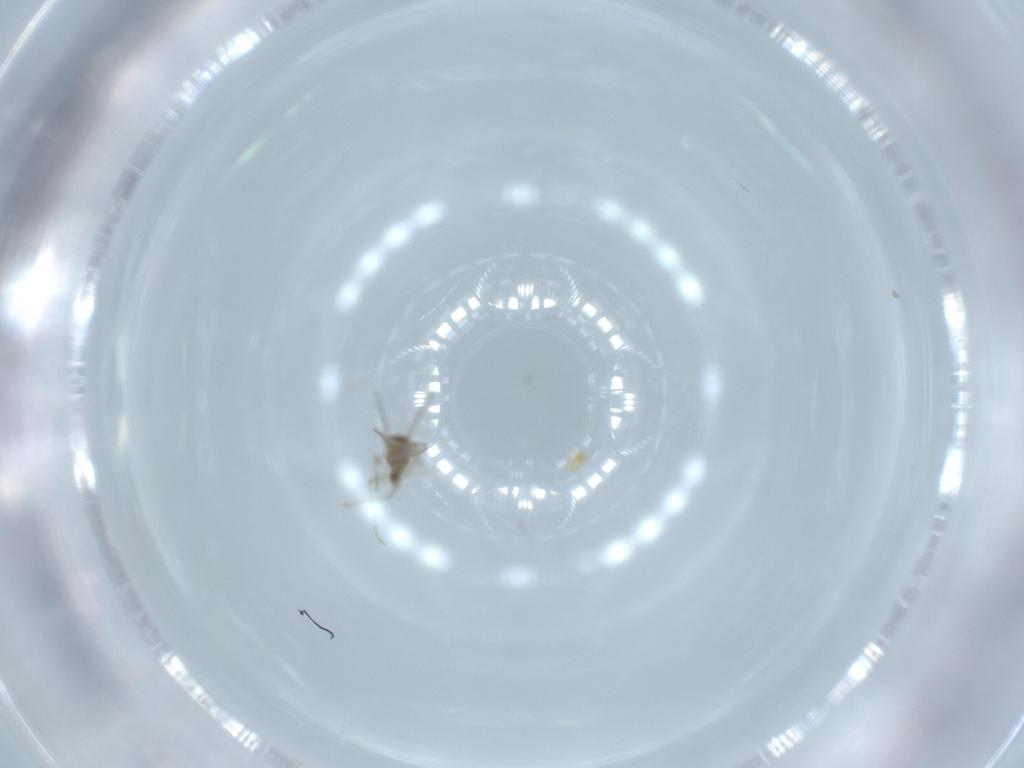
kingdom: Animalia
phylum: Arthropoda
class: Insecta
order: Diptera
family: Cecidomyiidae
